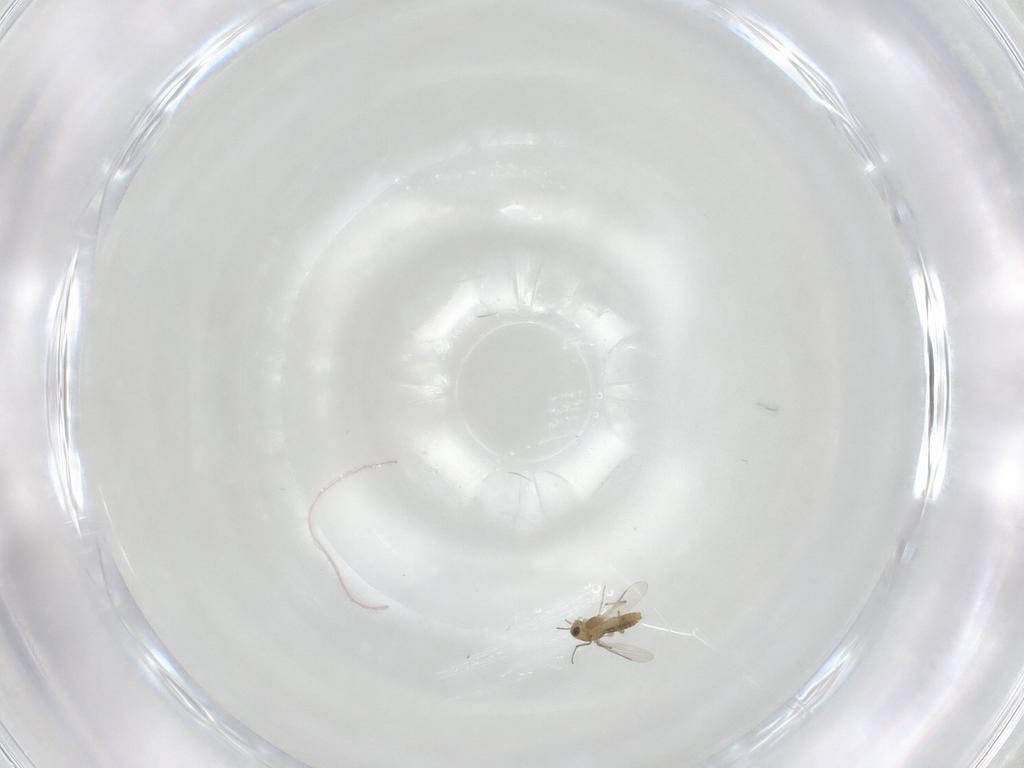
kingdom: Animalia
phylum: Arthropoda
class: Insecta
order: Diptera
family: Chironomidae
